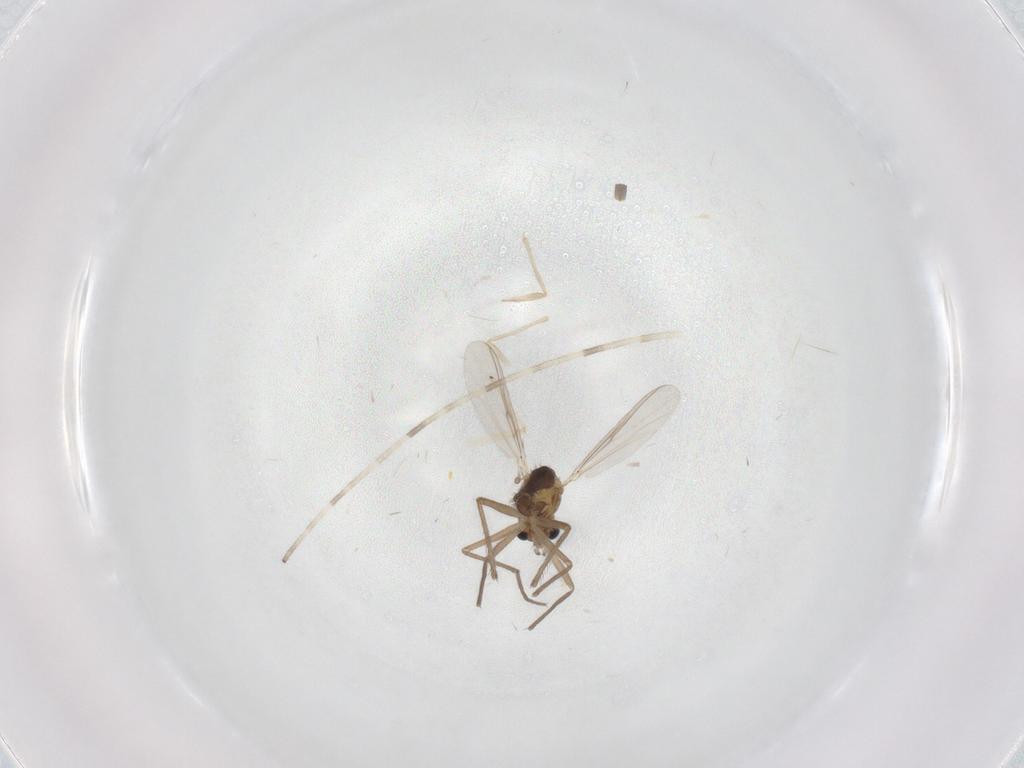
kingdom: Animalia
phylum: Arthropoda
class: Insecta
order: Diptera
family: Chironomidae
